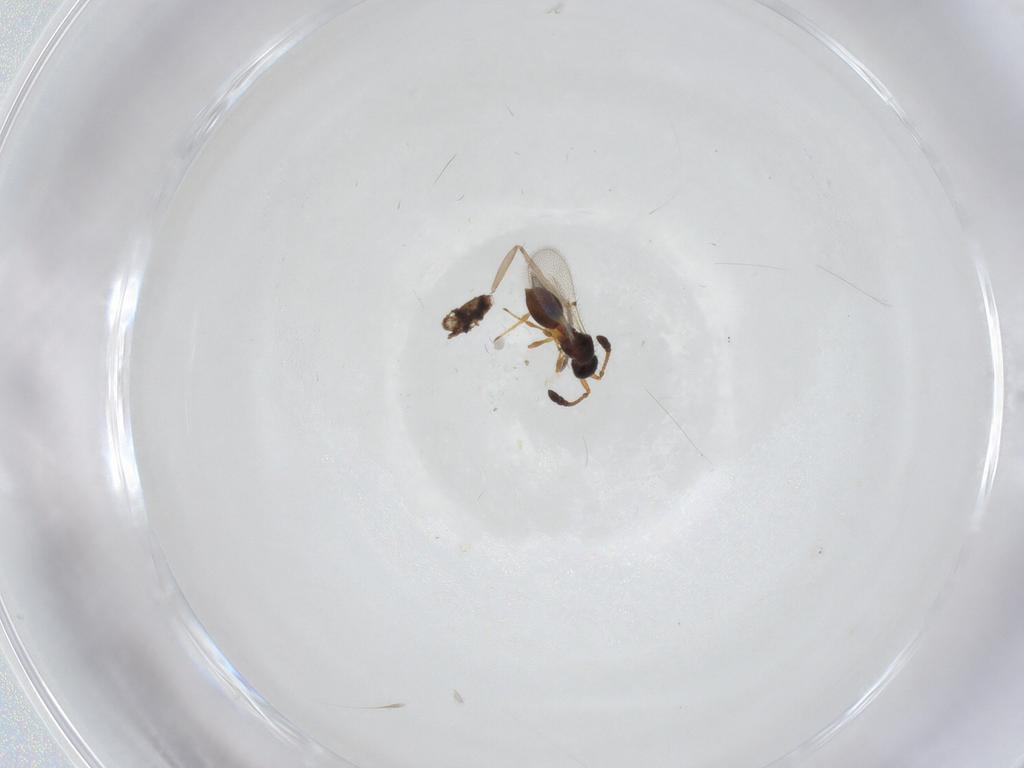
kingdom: Animalia
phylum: Arthropoda
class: Insecta
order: Hymenoptera
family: Diapriidae
